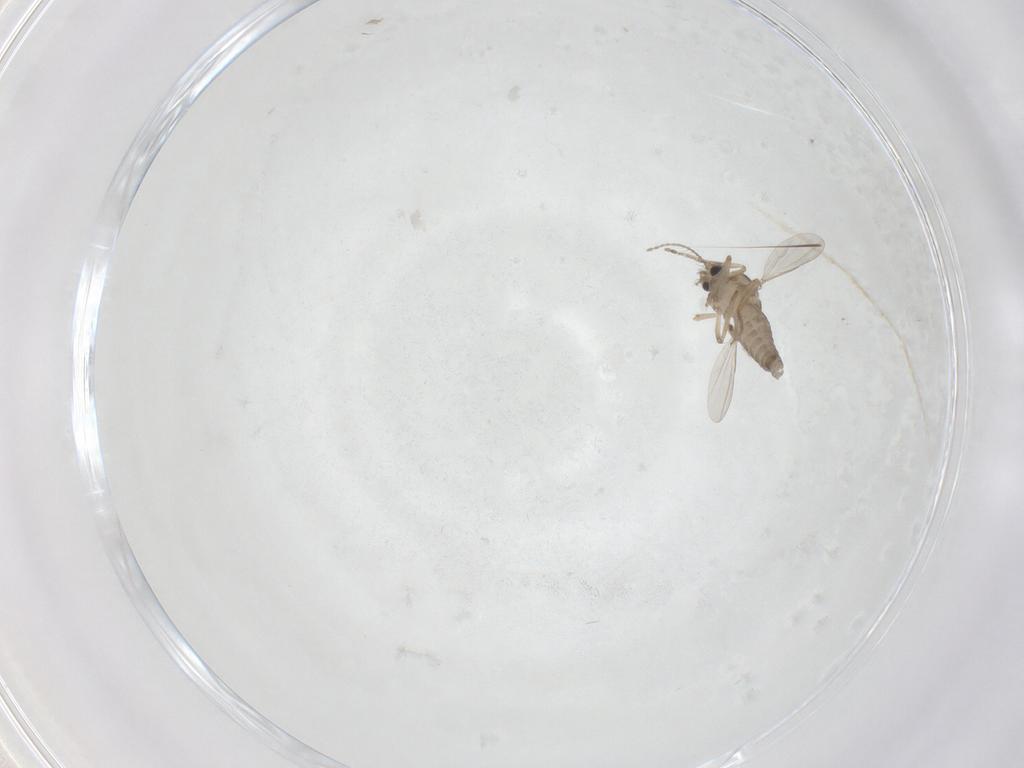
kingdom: Animalia
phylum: Arthropoda
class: Insecta
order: Diptera
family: Ceratopogonidae
